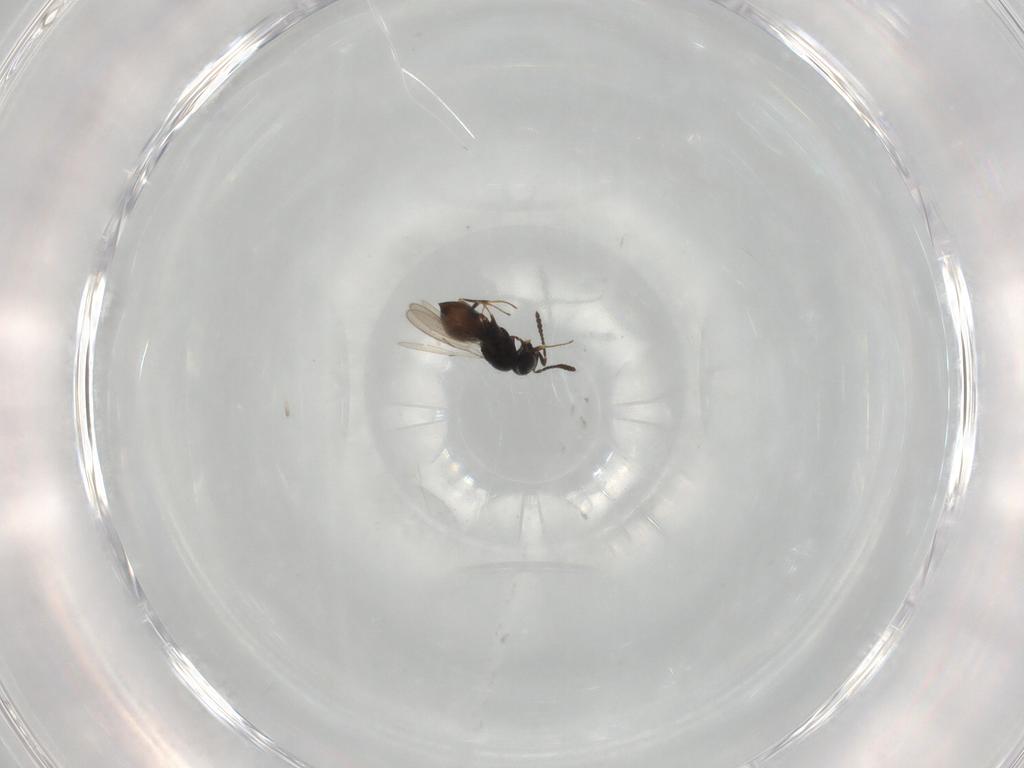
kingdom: Animalia
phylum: Arthropoda
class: Insecta
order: Hymenoptera
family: Scelionidae
